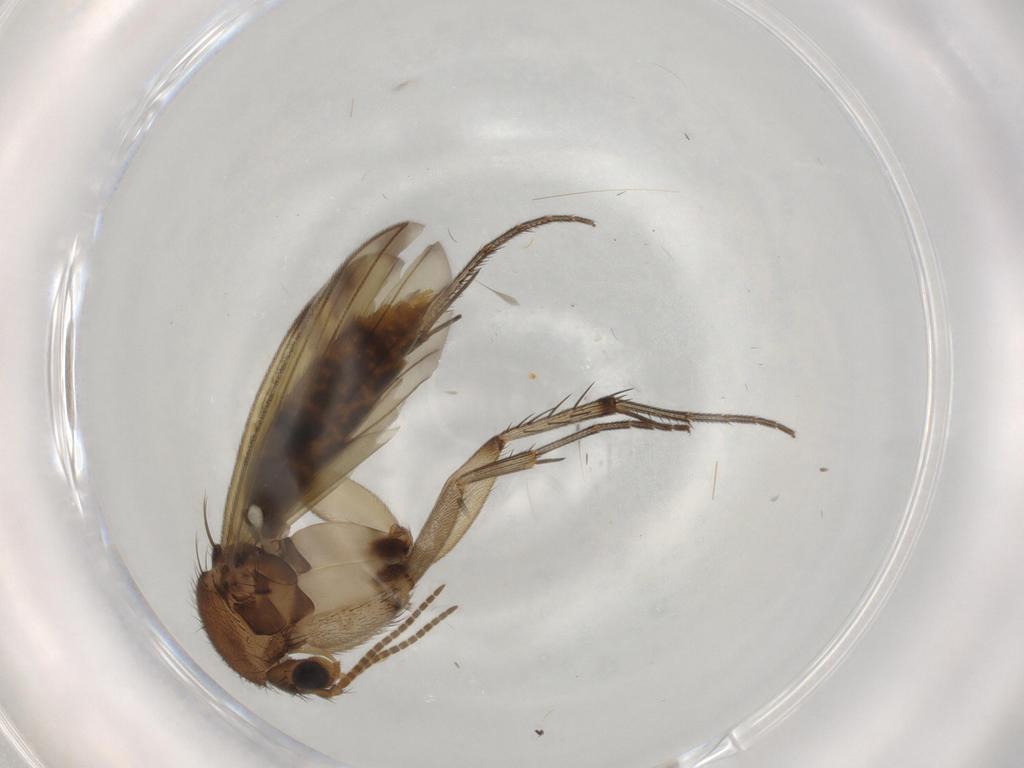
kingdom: Animalia
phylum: Arthropoda
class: Insecta
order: Diptera
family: Mycetophilidae
